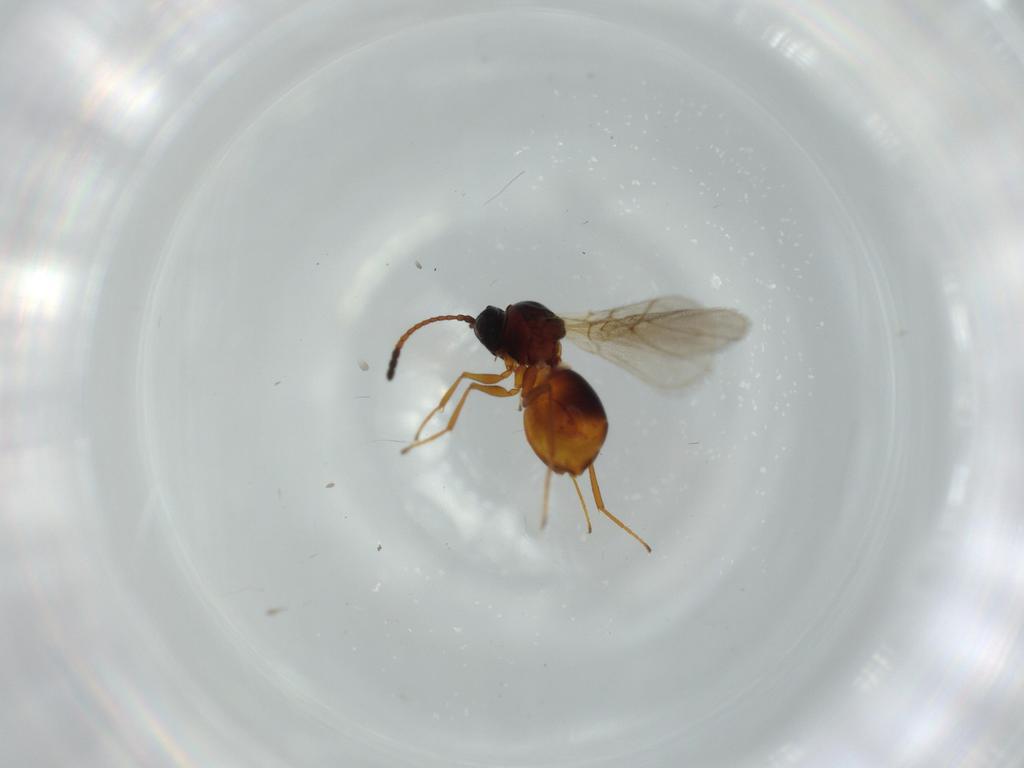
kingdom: Animalia
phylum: Arthropoda
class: Insecta
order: Hymenoptera
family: Figitidae
